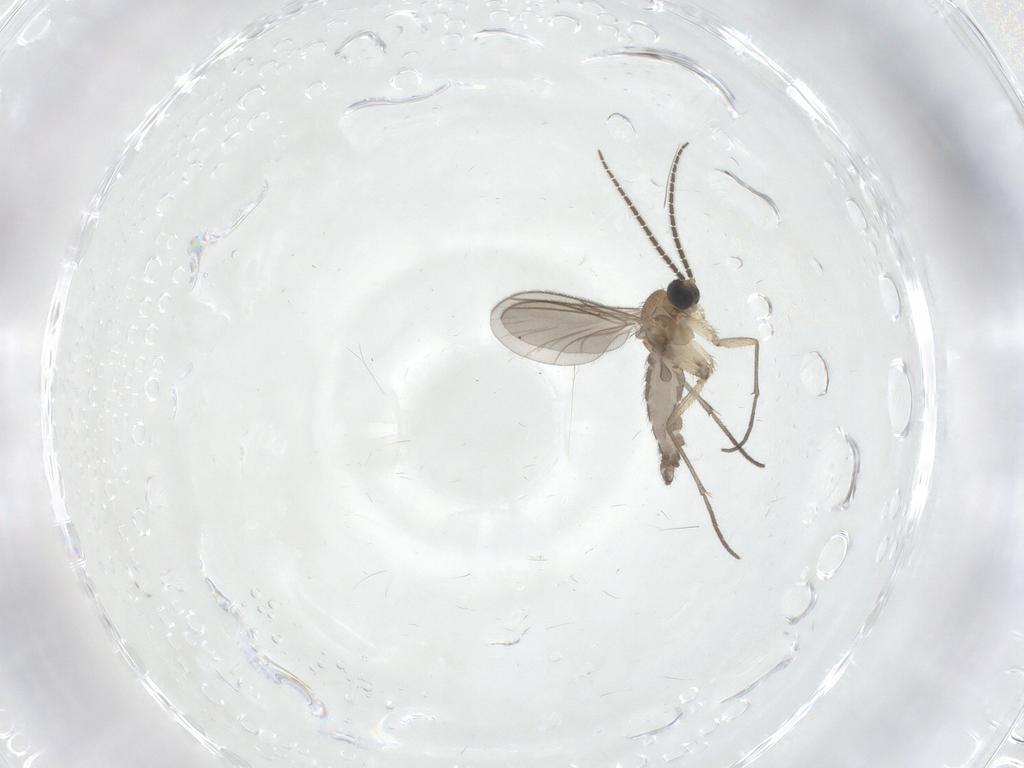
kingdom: Animalia
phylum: Arthropoda
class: Insecta
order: Diptera
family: Sciaridae
